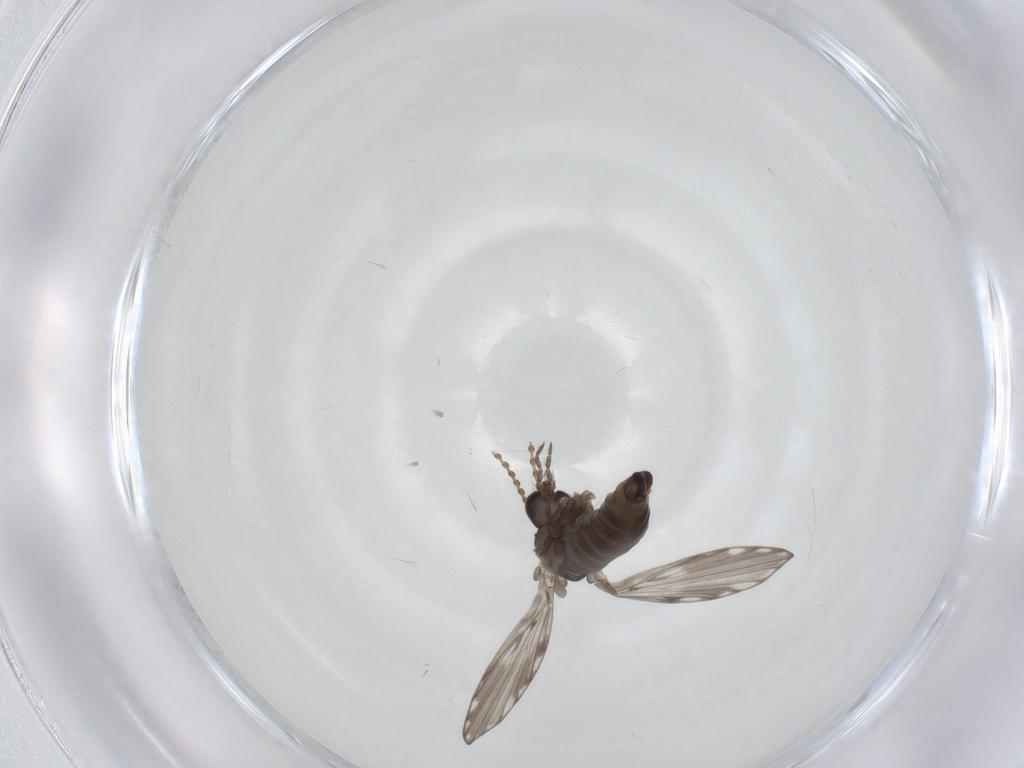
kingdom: Animalia
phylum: Arthropoda
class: Insecta
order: Diptera
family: Psychodidae
